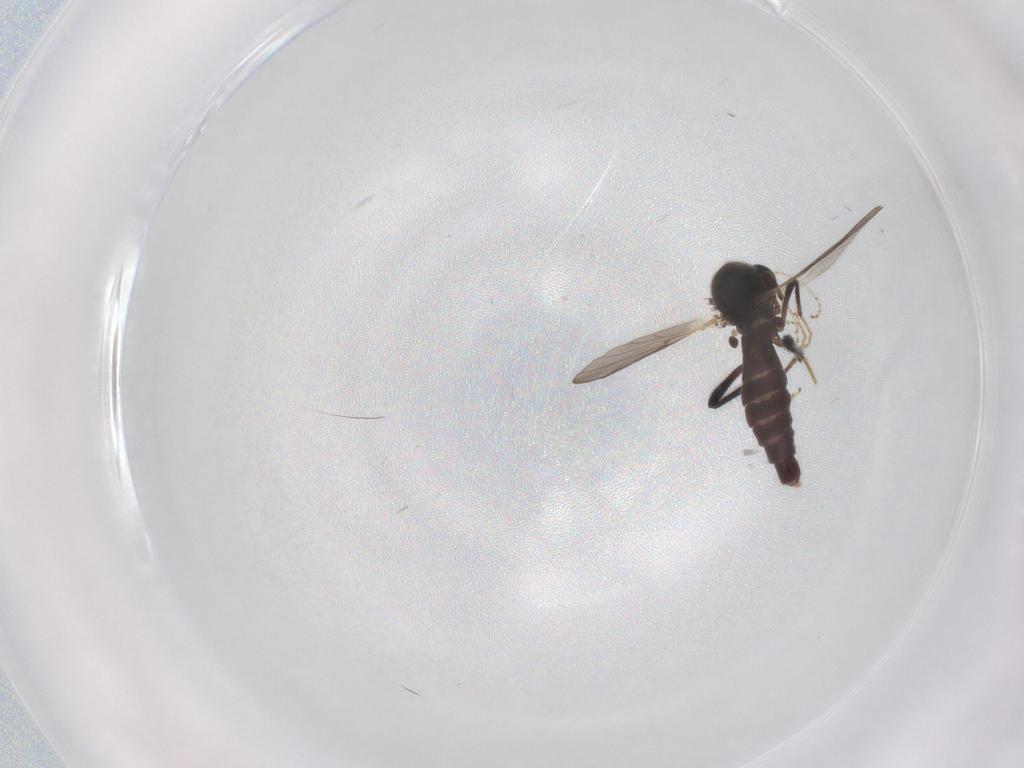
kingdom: Animalia
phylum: Arthropoda
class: Insecta
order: Diptera
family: Ceratopogonidae
